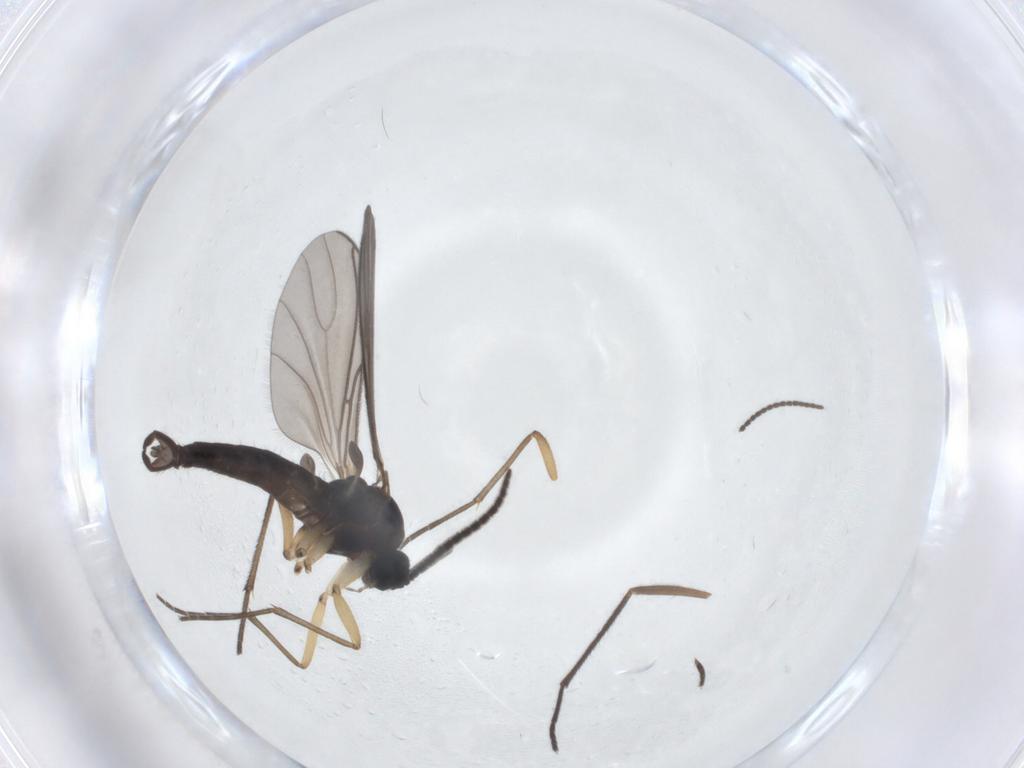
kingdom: Animalia
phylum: Arthropoda
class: Insecta
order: Diptera
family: Sciaridae
